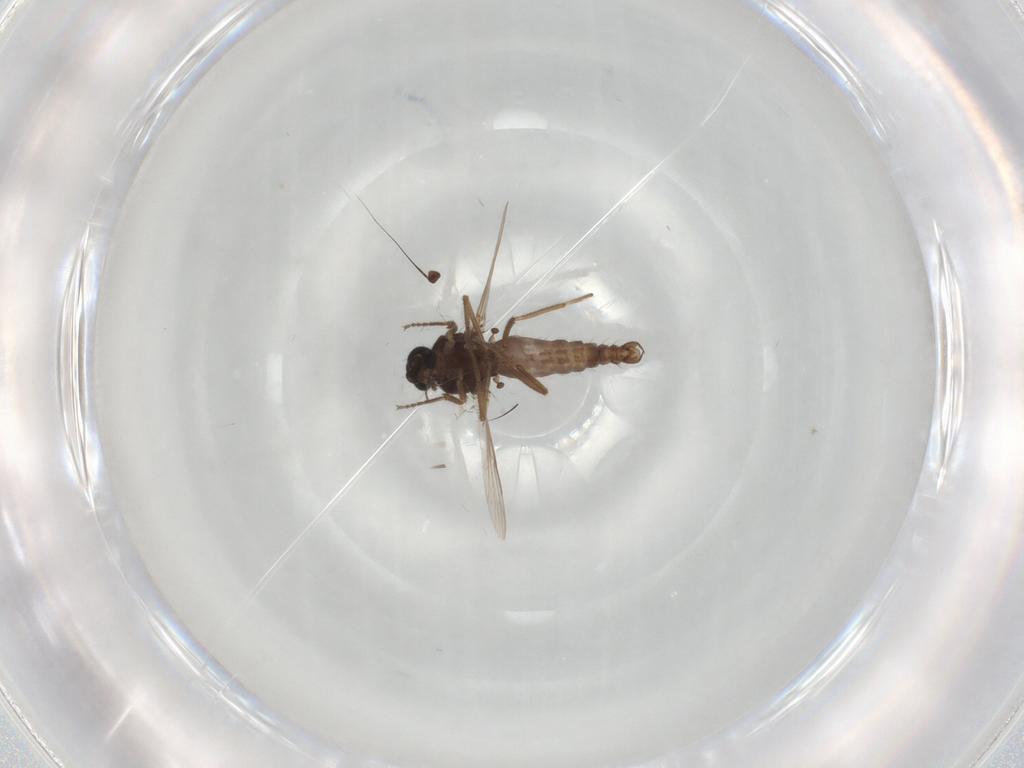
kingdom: Animalia
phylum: Arthropoda
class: Insecta
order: Diptera
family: Ceratopogonidae
